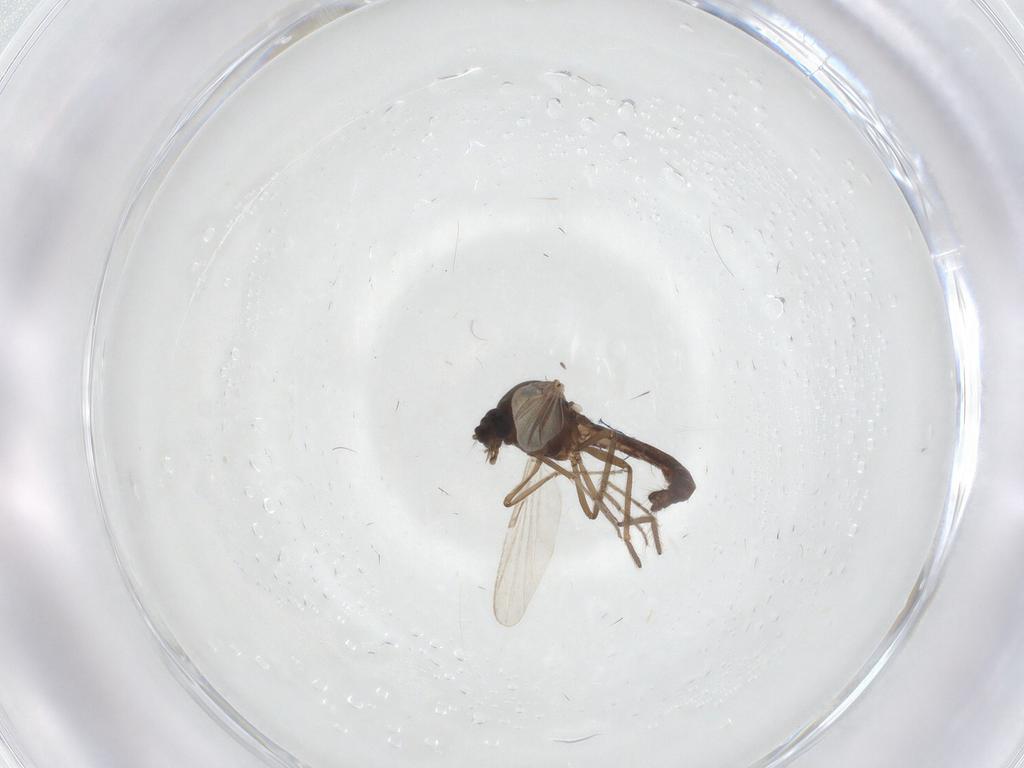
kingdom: Animalia
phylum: Arthropoda
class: Insecta
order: Diptera
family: Ceratopogonidae
